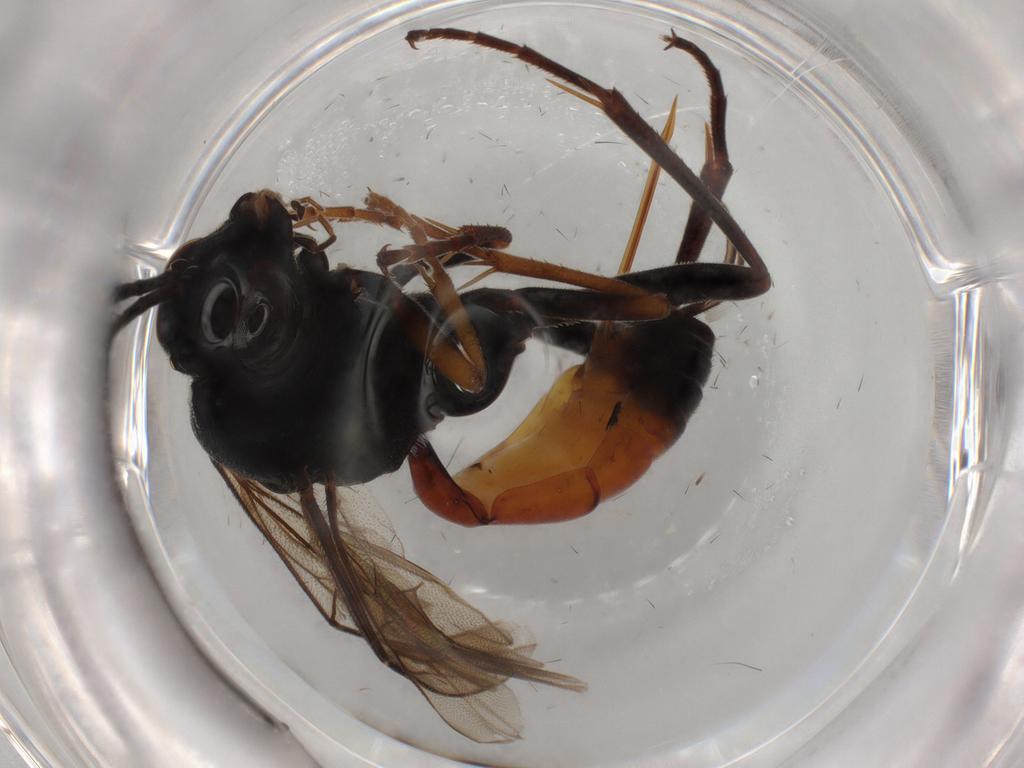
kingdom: Animalia
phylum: Arthropoda
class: Insecta
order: Hymenoptera
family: Ichneumonidae
